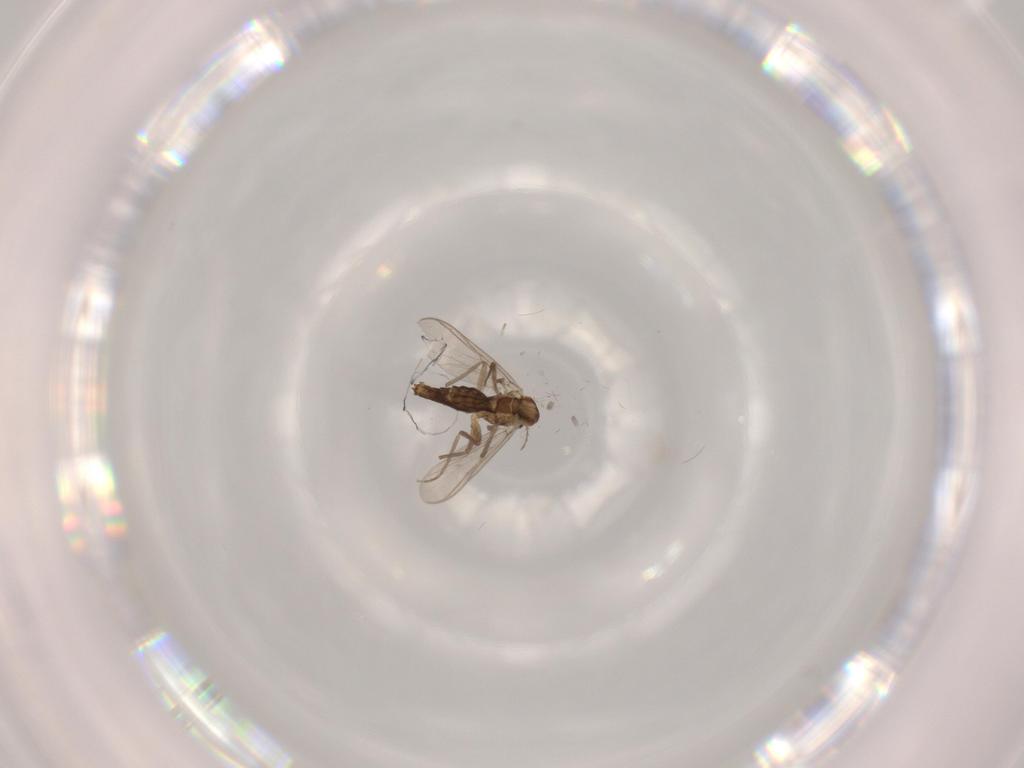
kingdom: Animalia
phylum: Arthropoda
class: Insecta
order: Diptera
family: Chironomidae
